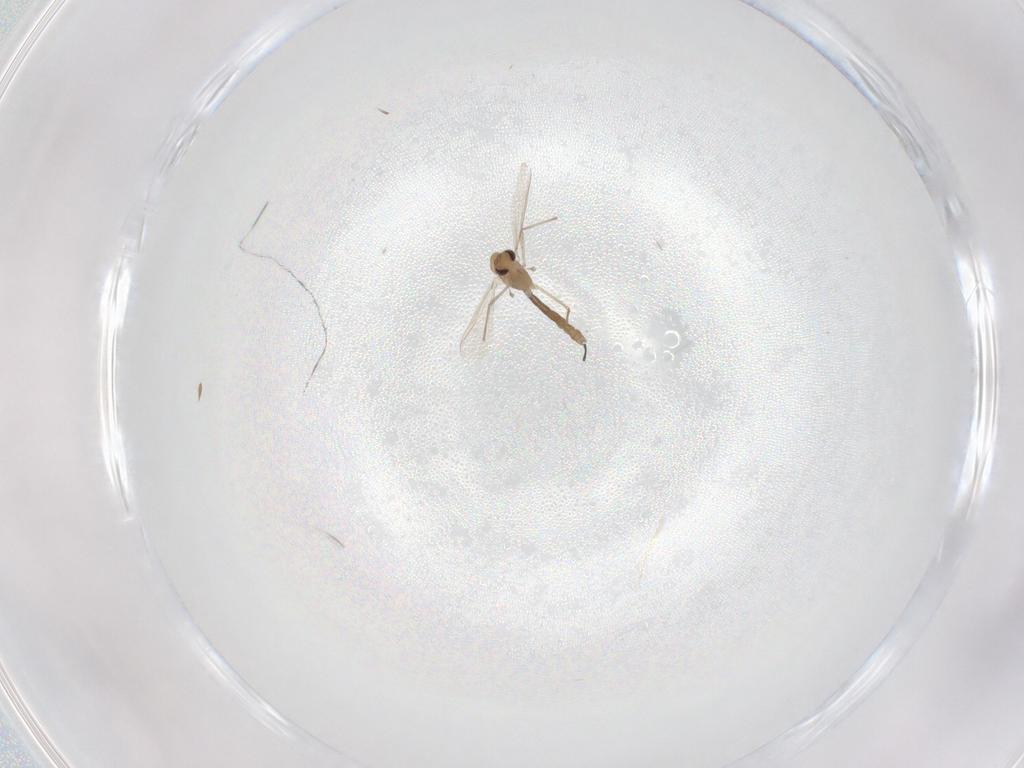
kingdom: Animalia
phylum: Arthropoda
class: Insecta
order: Diptera
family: Chironomidae
